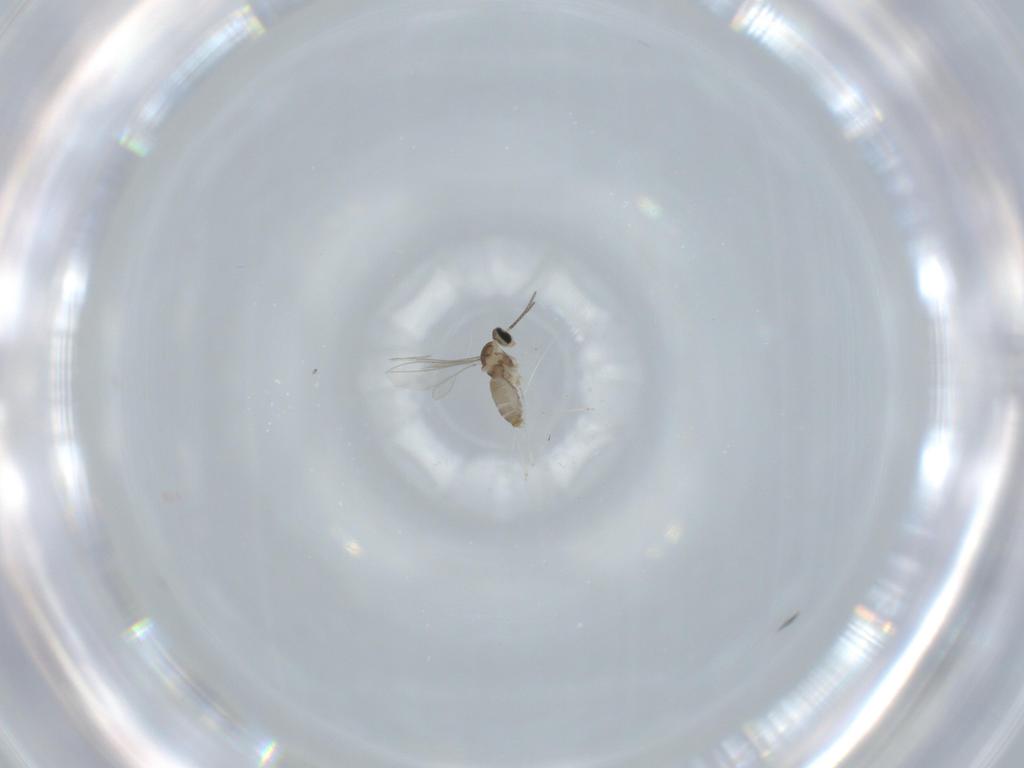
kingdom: Animalia
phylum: Arthropoda
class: Insecta
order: Diptera
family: Cecidomyiidae
